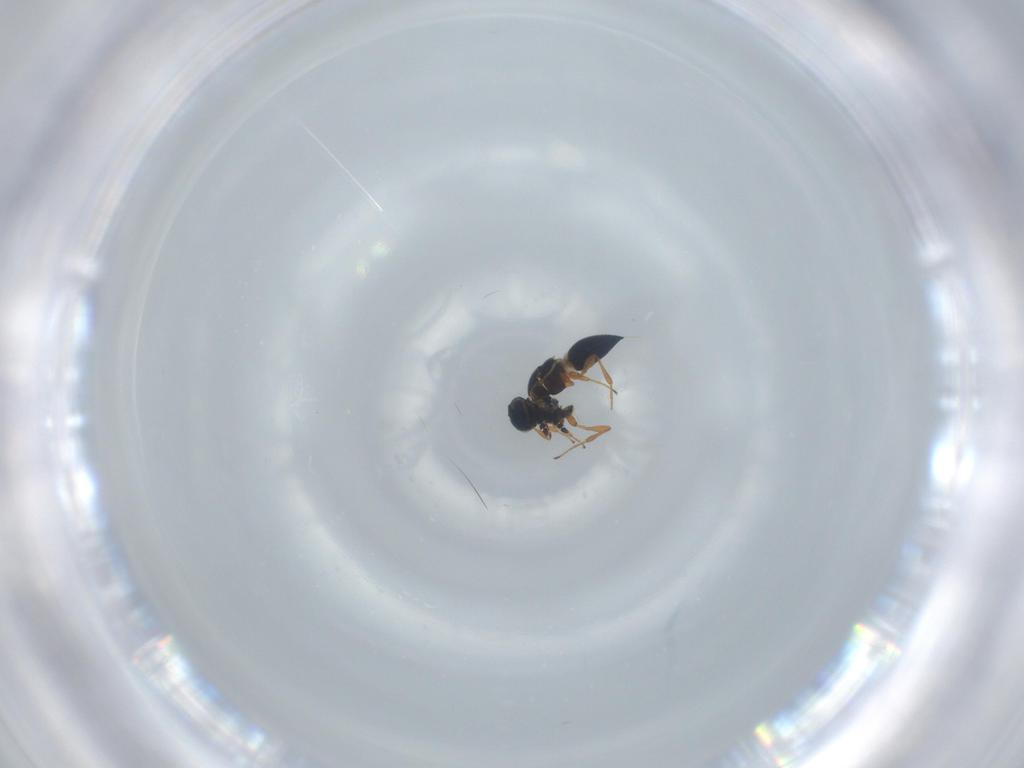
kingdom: Animalia
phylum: Arthropoda
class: Insecta
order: Hymenoptera
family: Platygastridae
